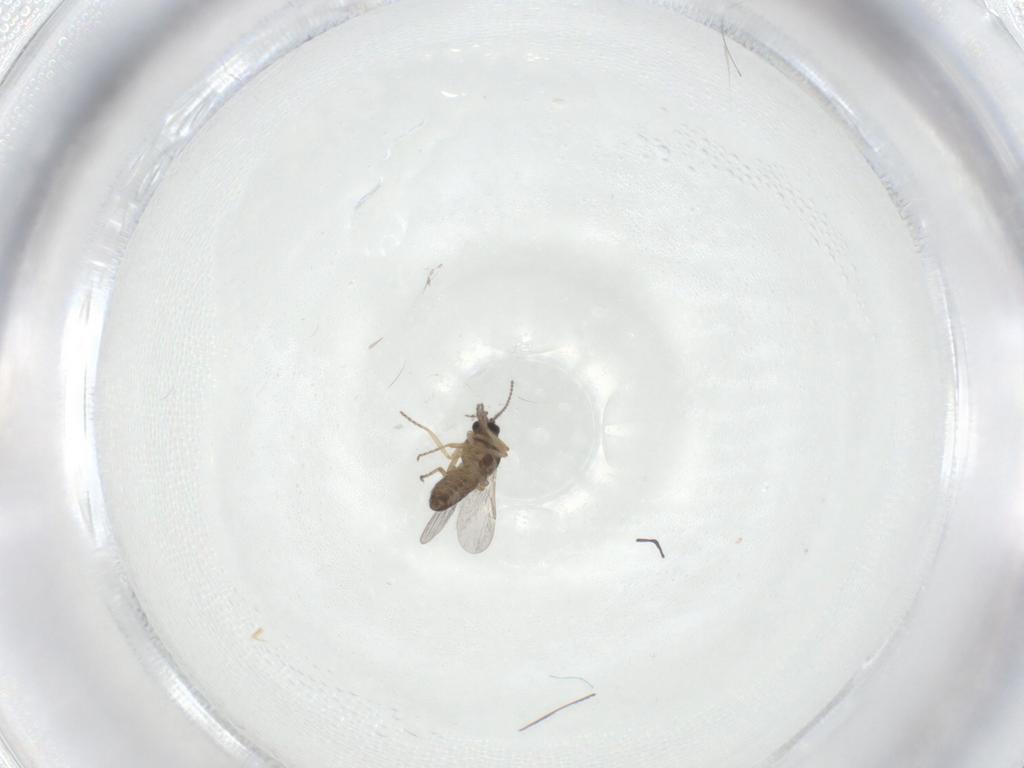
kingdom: Animalia
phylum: Arthropoda
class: Insecta
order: Diptera
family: Ceratopogonidae
